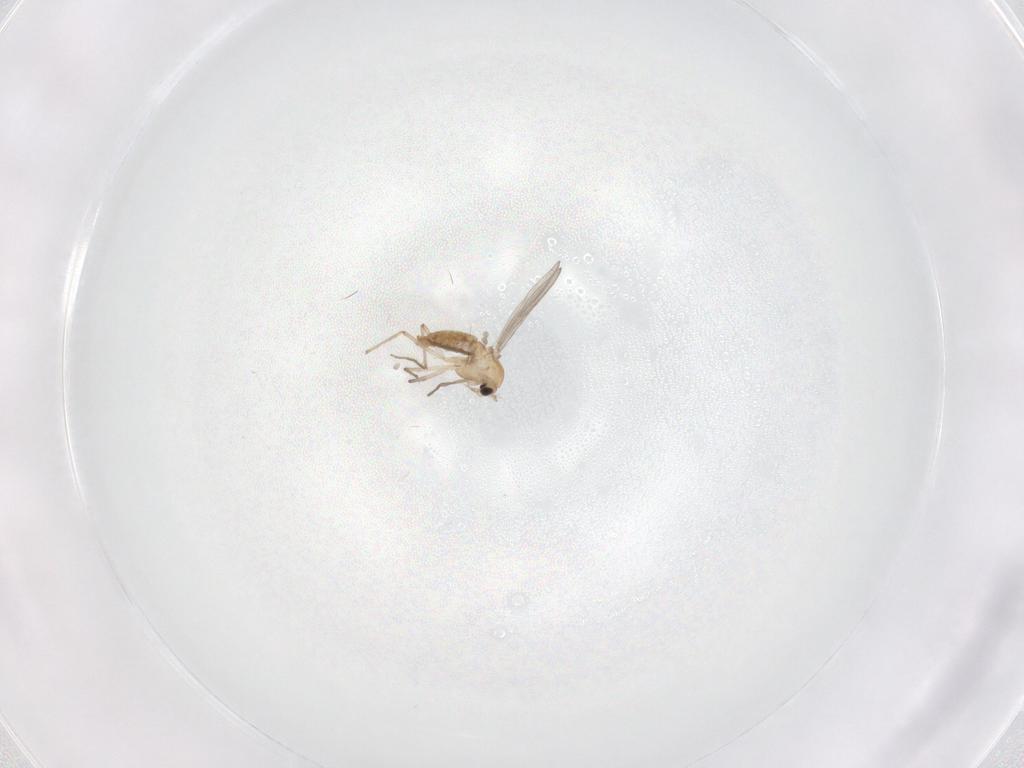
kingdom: Animalia
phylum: Arthropoda
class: Insecta
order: Diptera
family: Chironomidae
